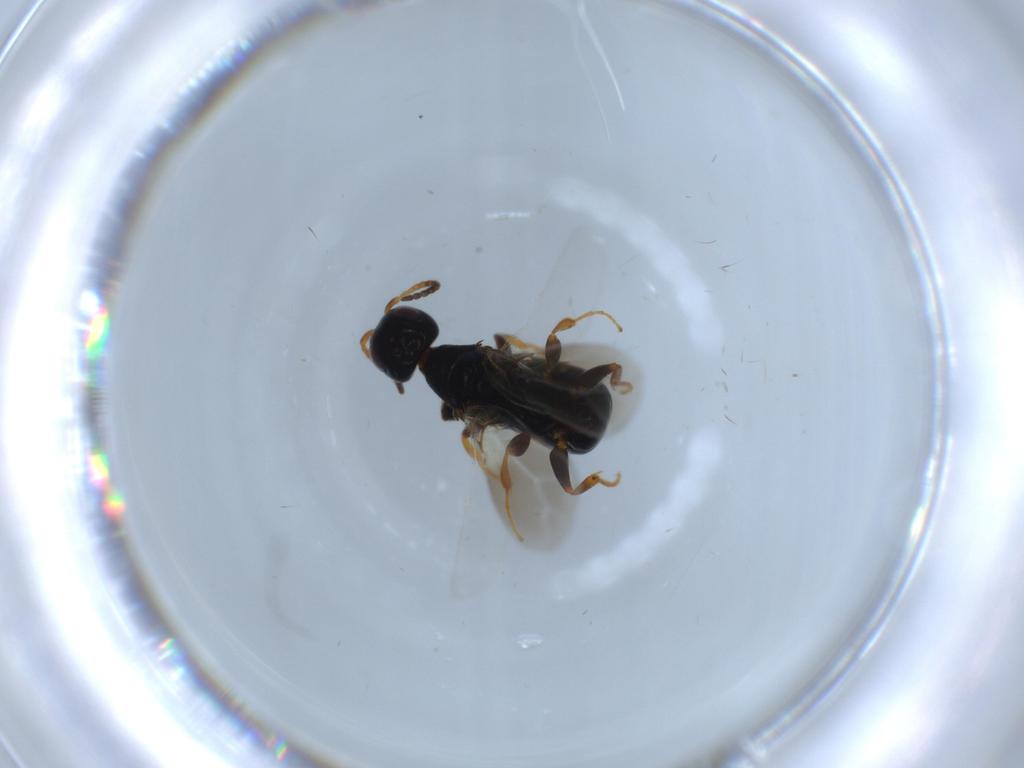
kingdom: Animalia
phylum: Arthropoda
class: Insecta
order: Hymenoptera
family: Bethylidae
